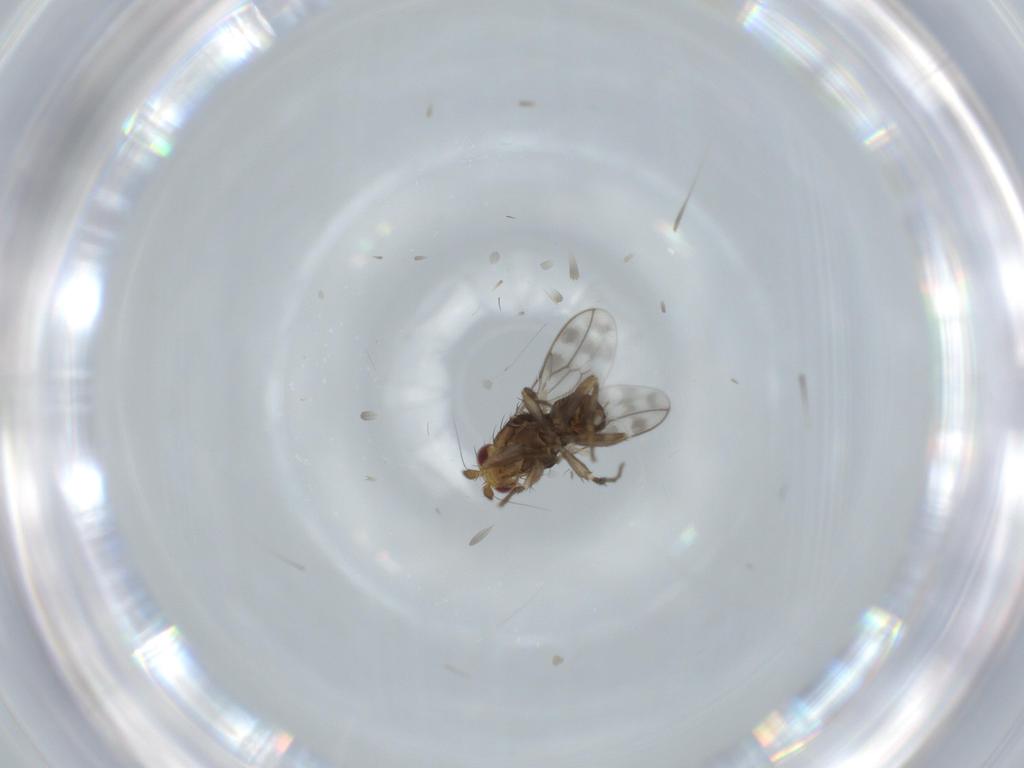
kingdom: Animalia
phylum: Arthropoda
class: Insecta
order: Diptera
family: Sphaeroceridae
